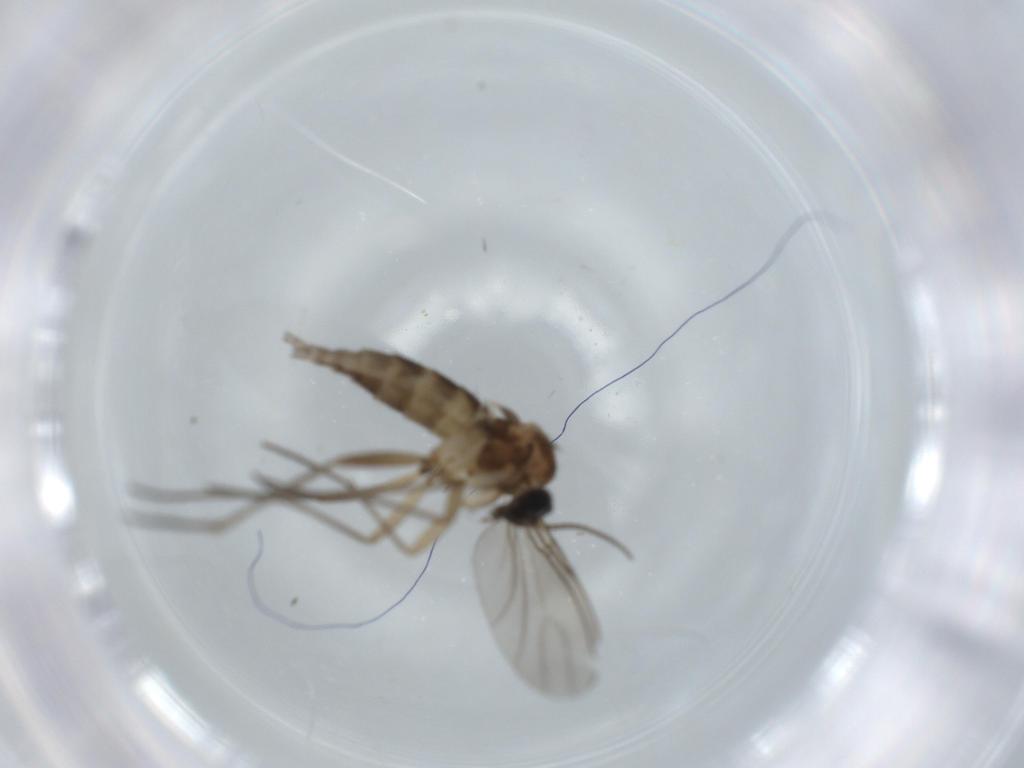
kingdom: Animalia
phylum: Arthropoda
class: Insecta
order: Diptera
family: Sciaridae
